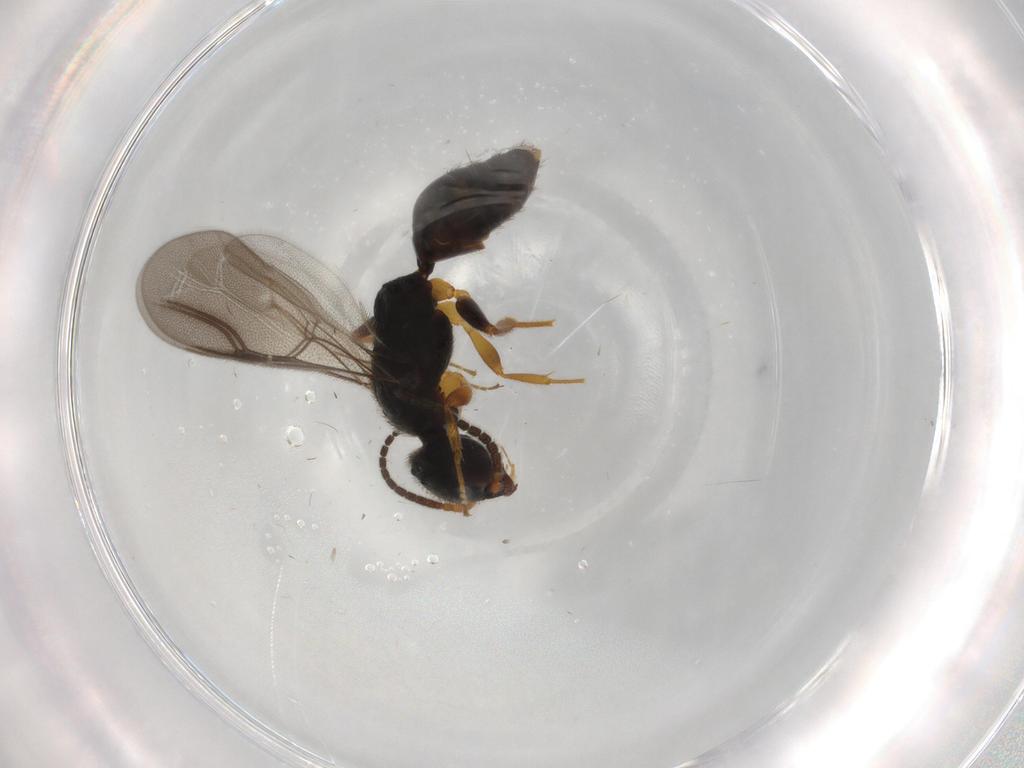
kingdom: Animalia
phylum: Arthropoda
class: Insecta
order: Hymenoptera
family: Bethylidae
